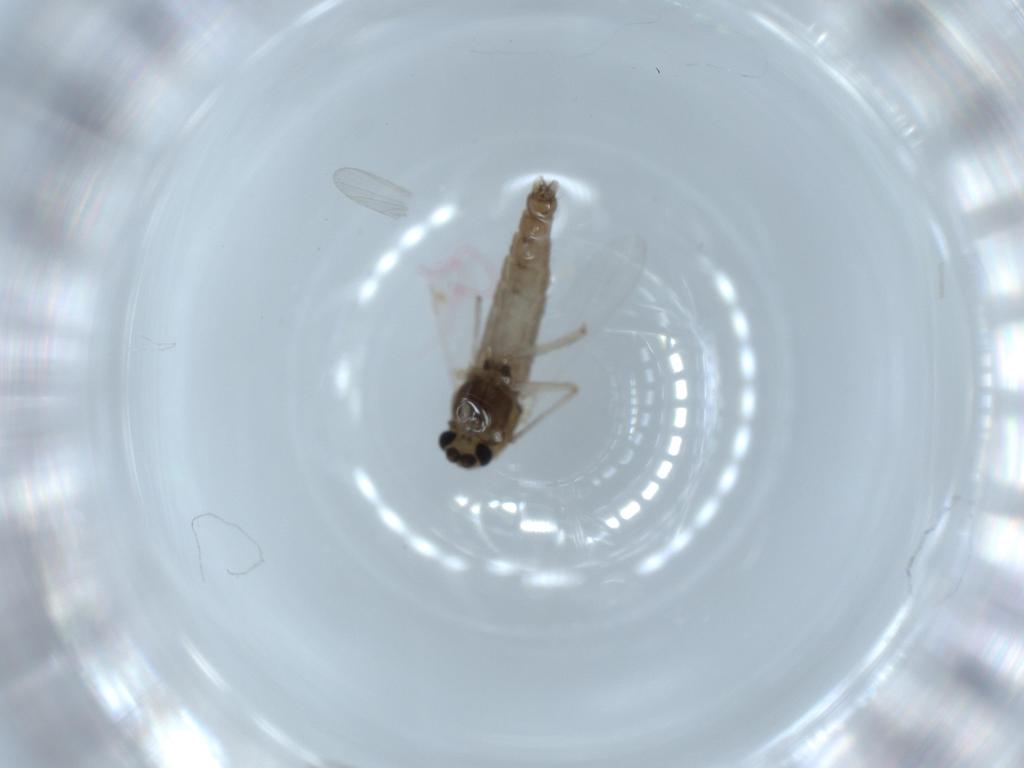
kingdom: Animalia
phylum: Arthropoda
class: Insecta
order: Diptera
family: Chironomidae
